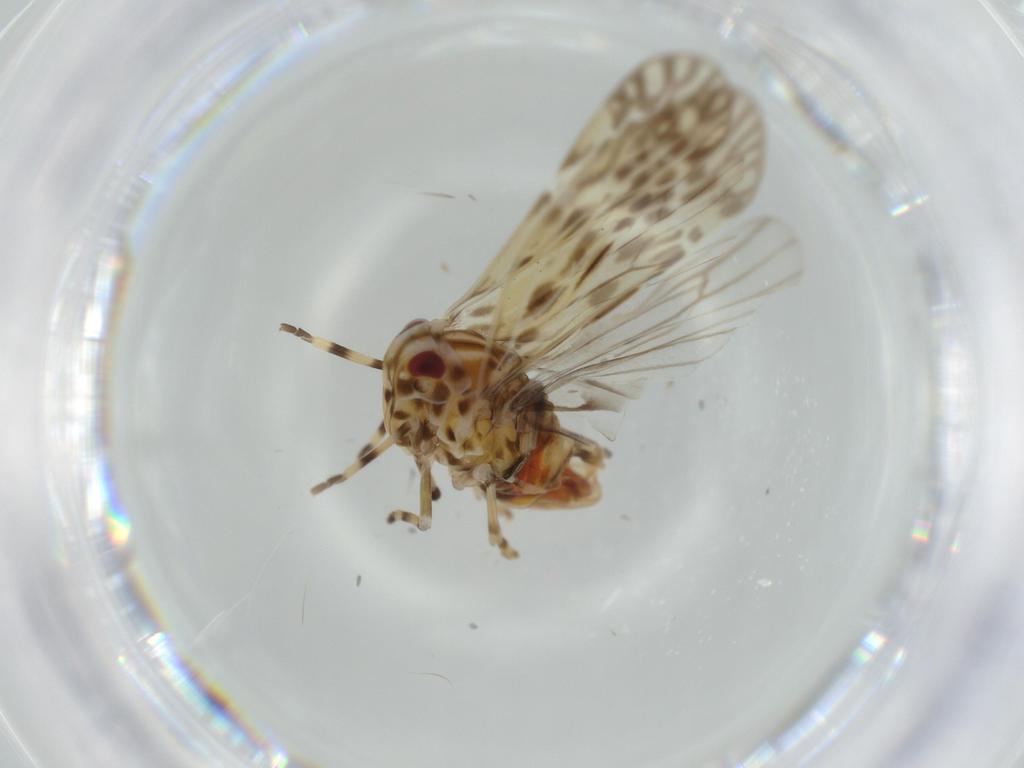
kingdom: Animalia
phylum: Arthropoda
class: Insecta
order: Hemiptera
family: Derbidae
